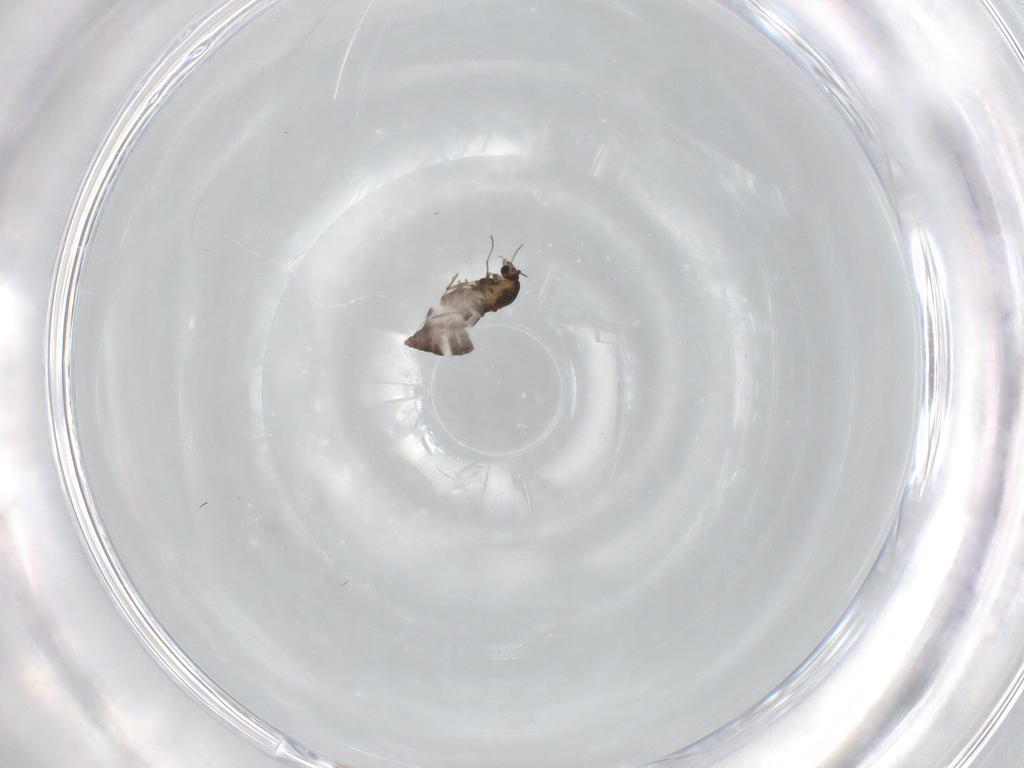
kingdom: Animalia
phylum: Arthropoda
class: Insecta
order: Diptera
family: Chironomidae
